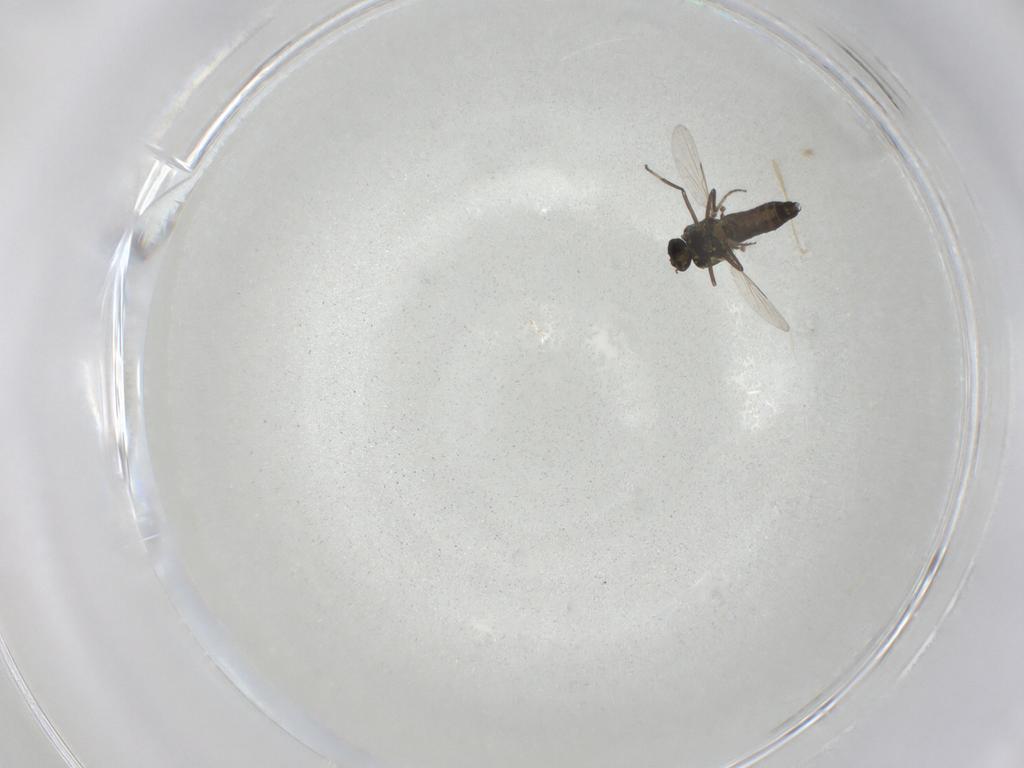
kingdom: Animalia
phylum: Arthropoda
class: Insecta
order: Diptera
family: Cecidomyiidae
